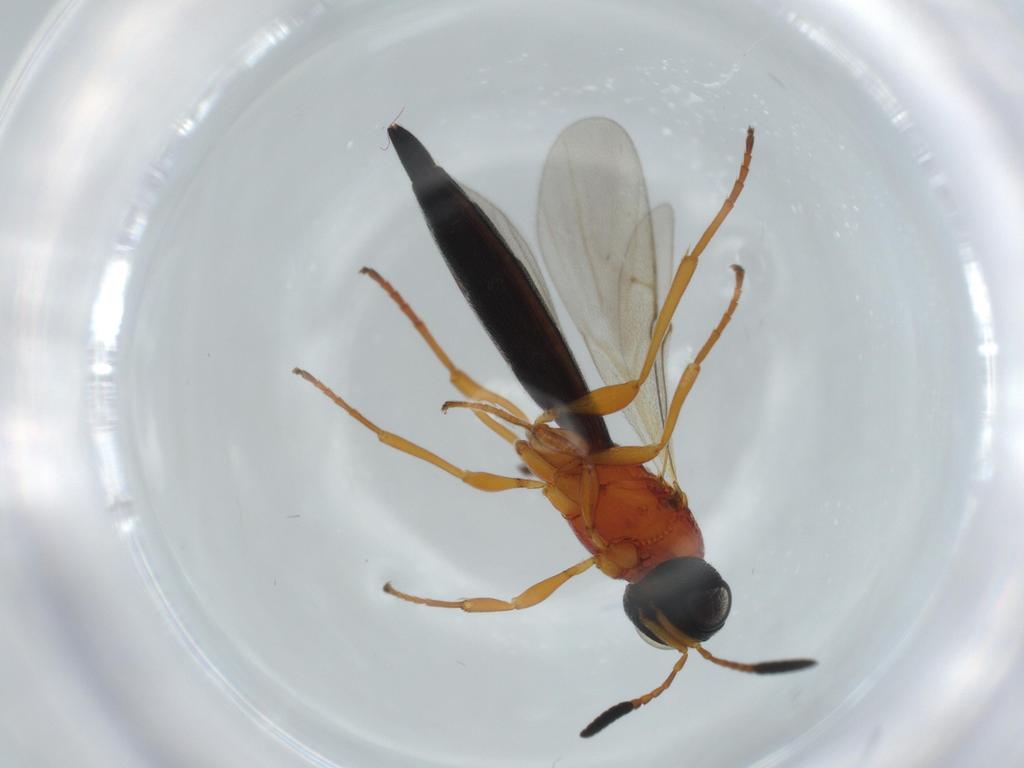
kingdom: Animalia
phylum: Arthropoda
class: Insecta
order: Hymenoptera
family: Scelionidae
